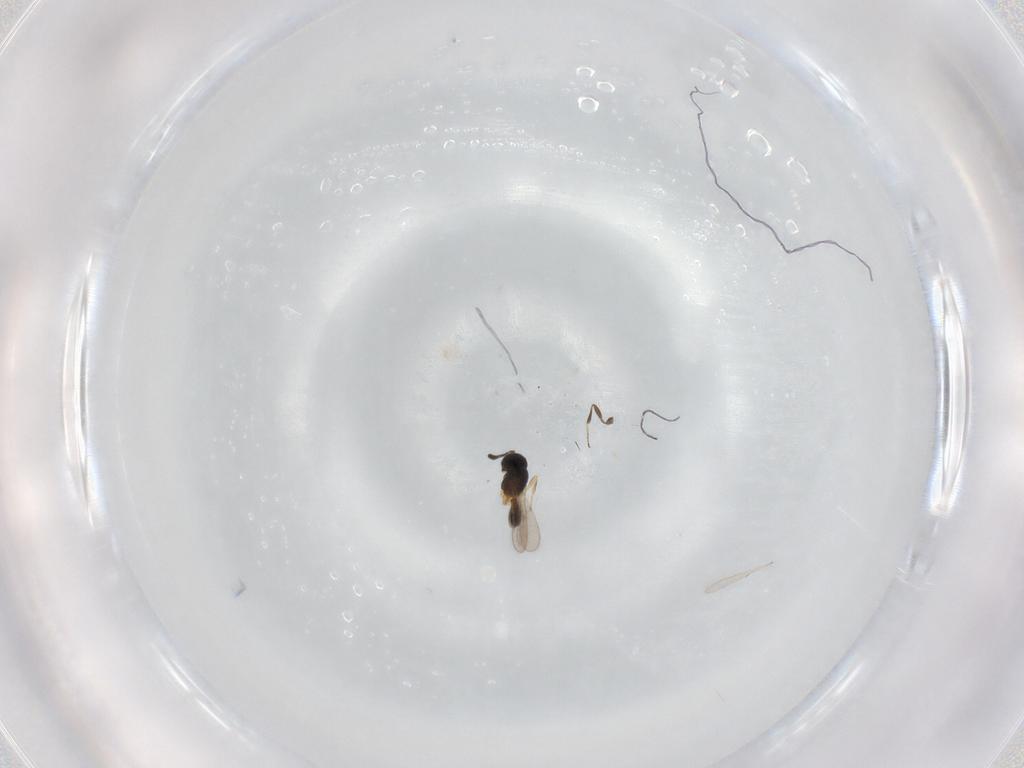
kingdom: Animalia
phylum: Arthropoda
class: Insecta
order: Hymenoptera
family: Scelionidae
